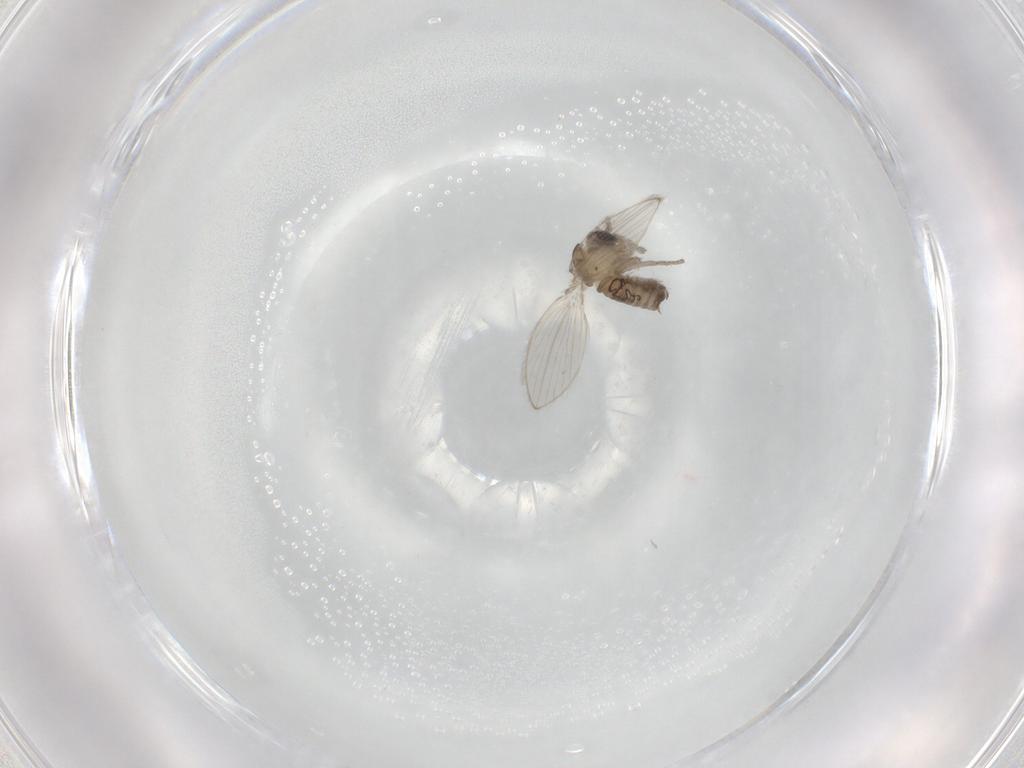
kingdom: Animalia
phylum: Arthropoda
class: Insecta
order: Diptera
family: Psychodidae
